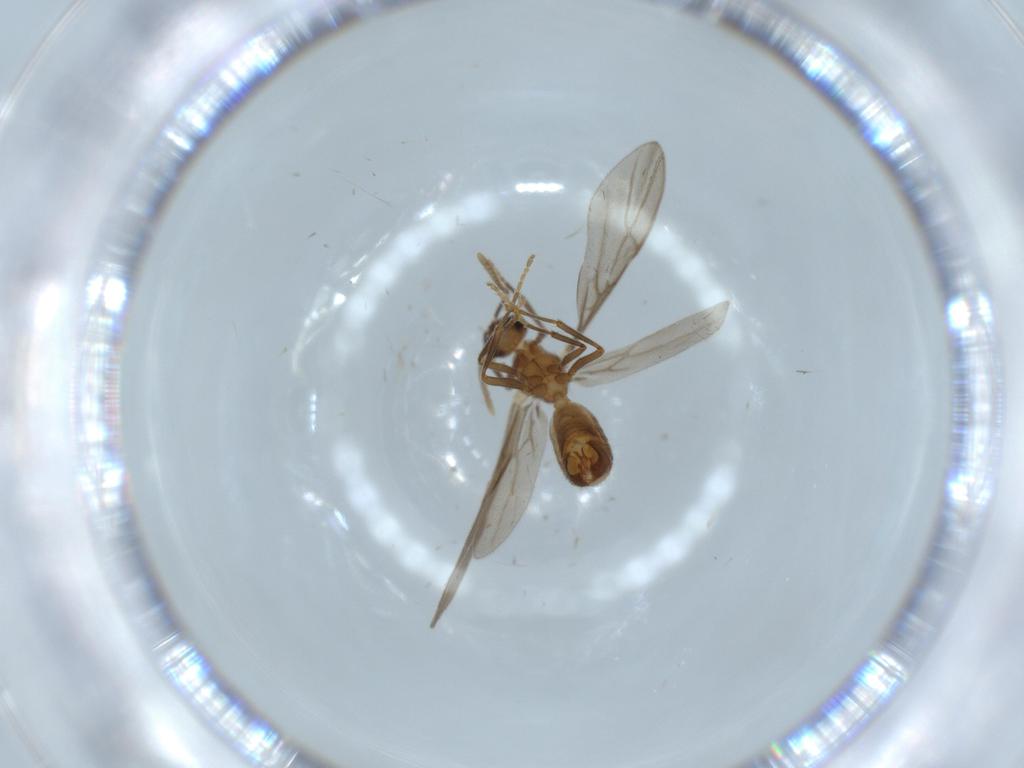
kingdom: Animalia
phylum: Arthropoda
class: Insecta
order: Hymenoptera
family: Formicidae
